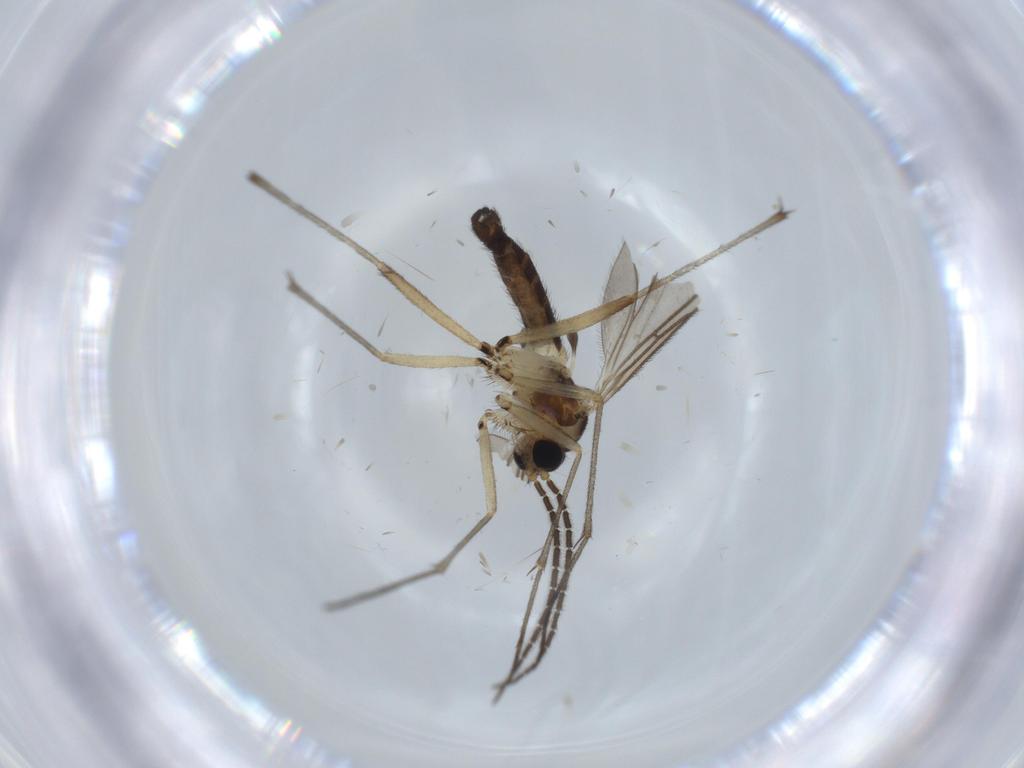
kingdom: Animalia
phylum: Arthropoda
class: Insecta
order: Diptera
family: Sciaridae
